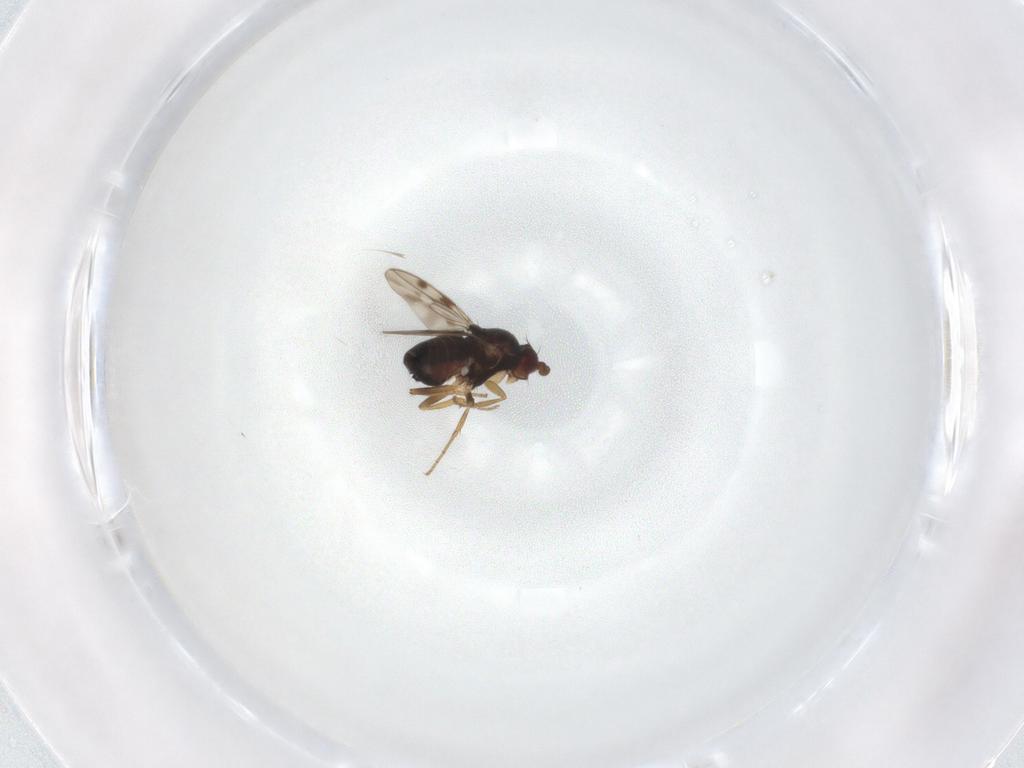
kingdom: Animalia
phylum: Arthropoda
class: Insecta
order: Diptera
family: Sphaeroceridae
